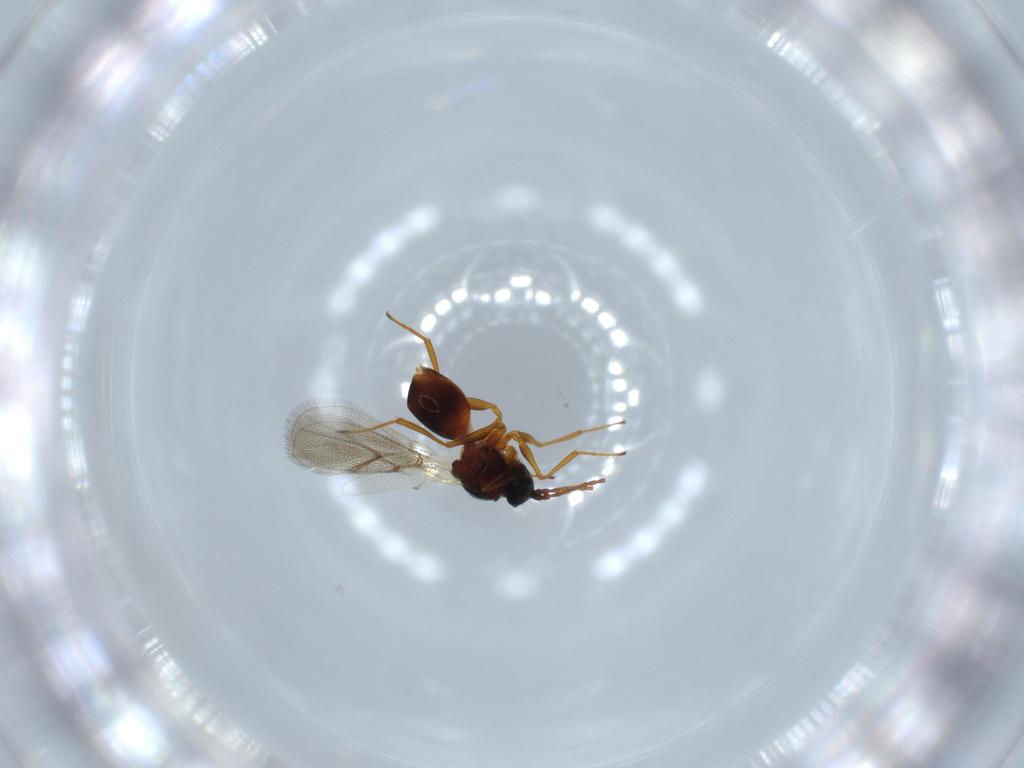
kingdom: Animalia
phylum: Arthropoda
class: Insecta
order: Hymenoptera
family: Figitidae
